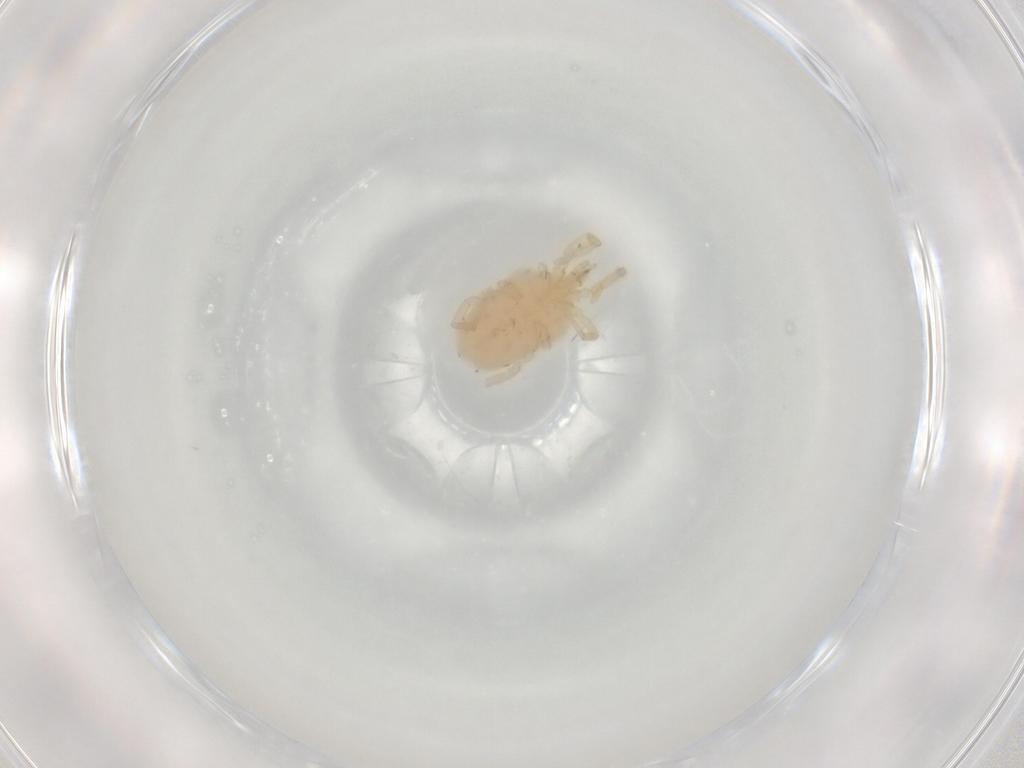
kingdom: Animalia
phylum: Arthropoda
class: Arachnida
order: Trombidiformes
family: Erythraeidae
